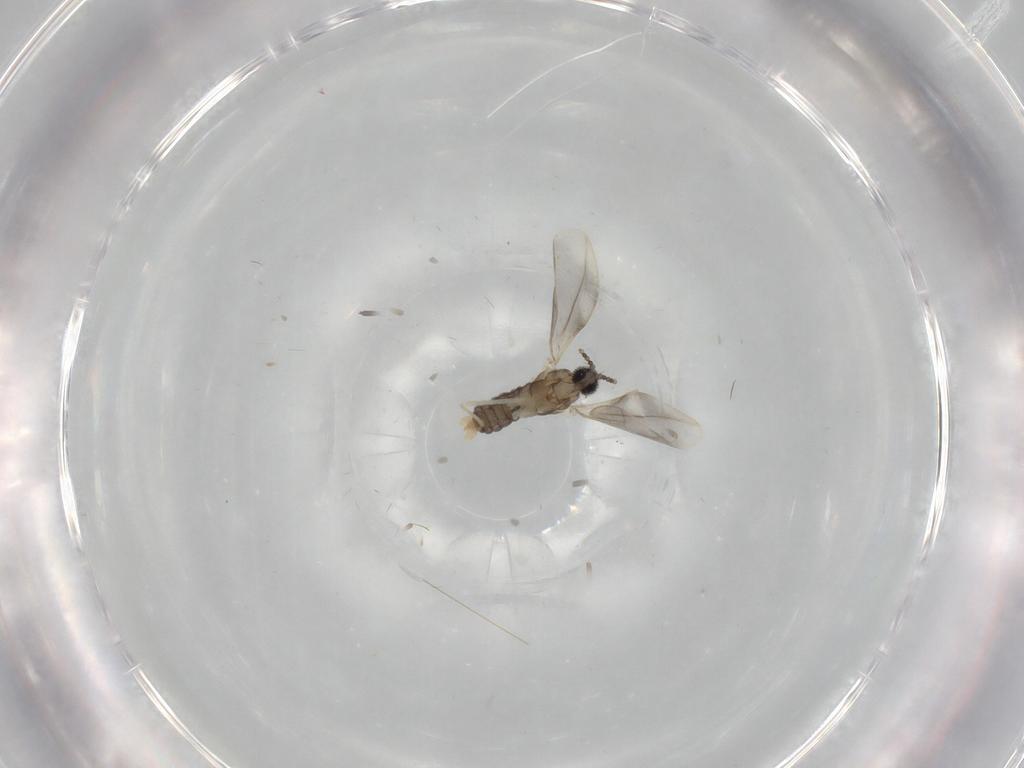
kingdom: Animalia
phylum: Arthropoda
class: Insecta
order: Diptera
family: Cecidomyiidae
